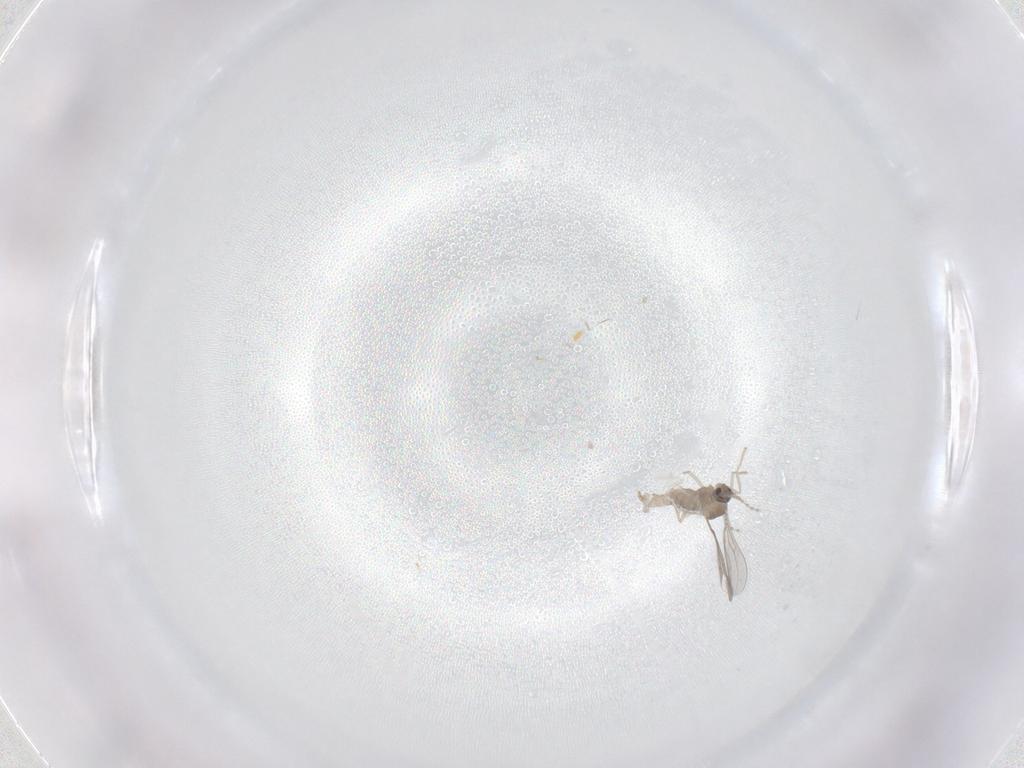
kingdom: Animalia
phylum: Arthropoda
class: Insecta
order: Diptera
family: Cecidomyiidae
